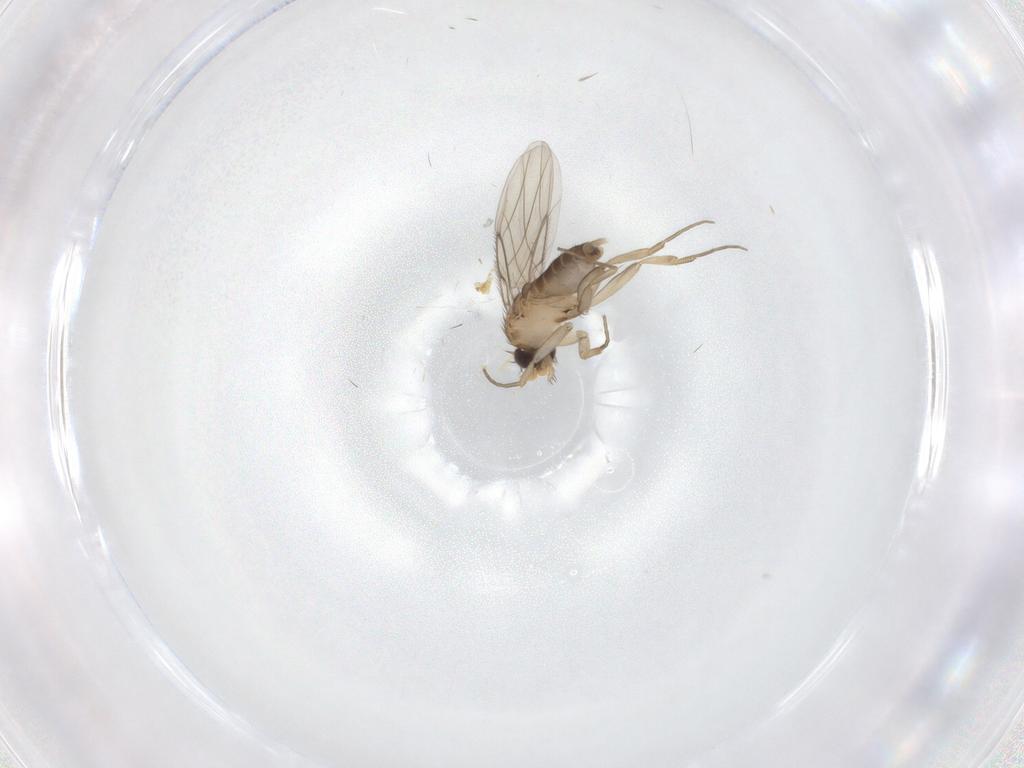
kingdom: Animalia
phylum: Arthropoda
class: Insecta
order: Diptera
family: Phoridae
